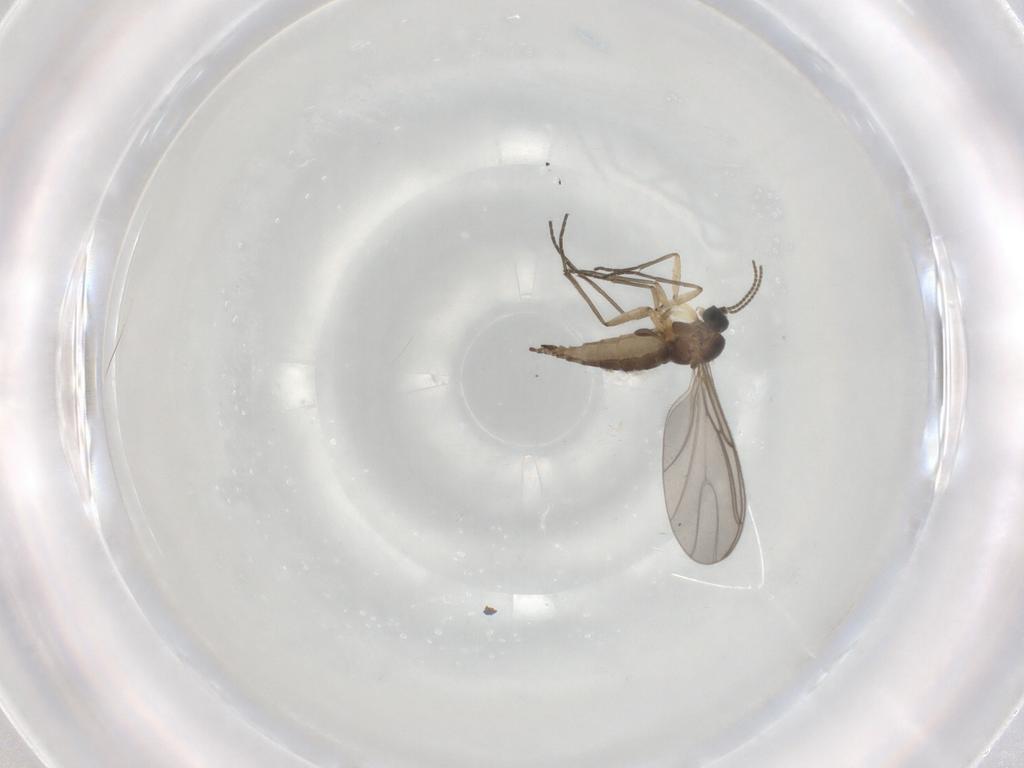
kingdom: Animalia
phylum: Arthropoda
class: Insecta
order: Diptera
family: Sciaridae
